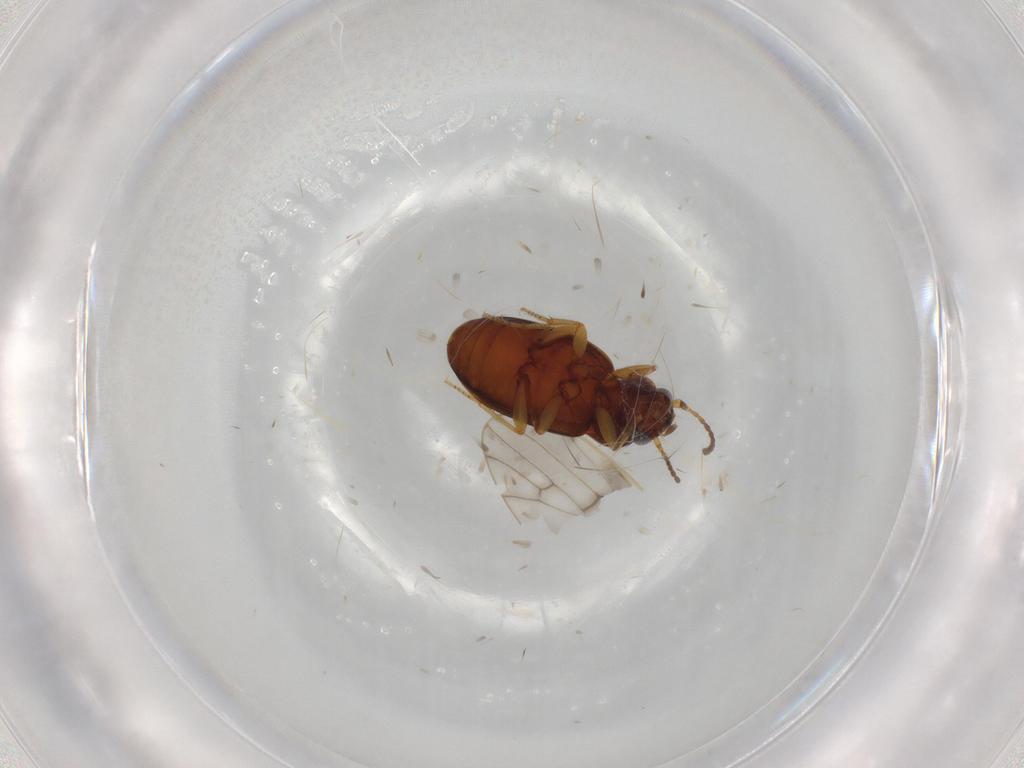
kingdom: Animalia
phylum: Arthropoda
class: Insecta
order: Coleoptera
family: Carabidae
